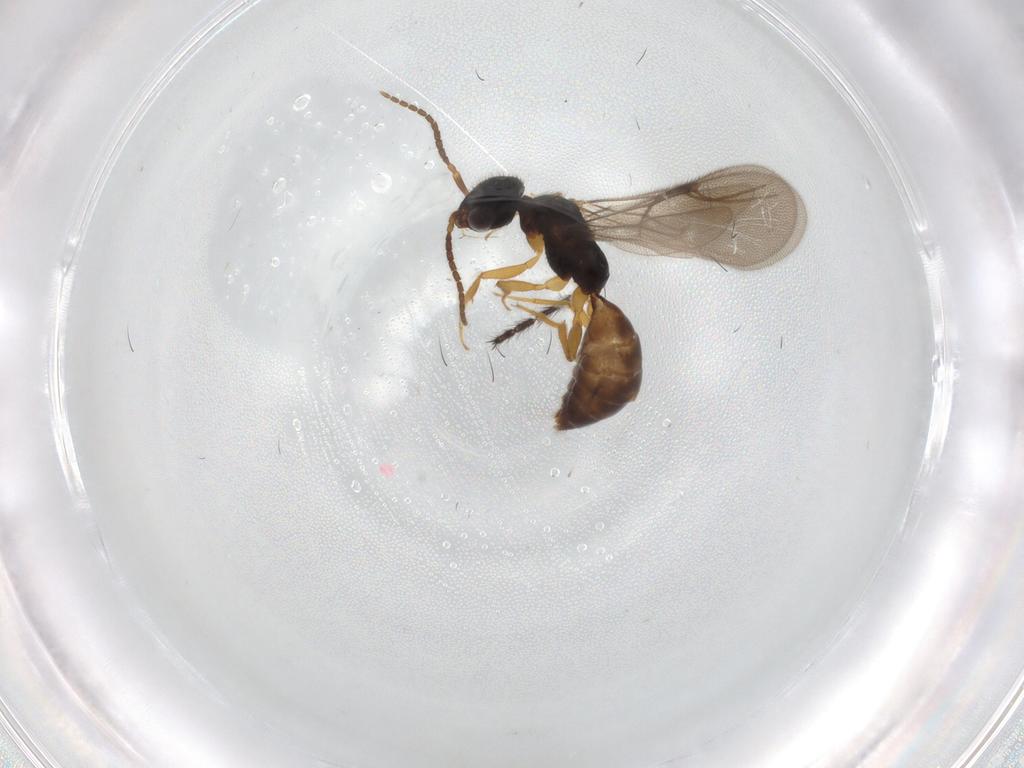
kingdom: Animalia
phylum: Arthropoda
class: Insecta
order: Hymenoptera
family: Bethylidae
